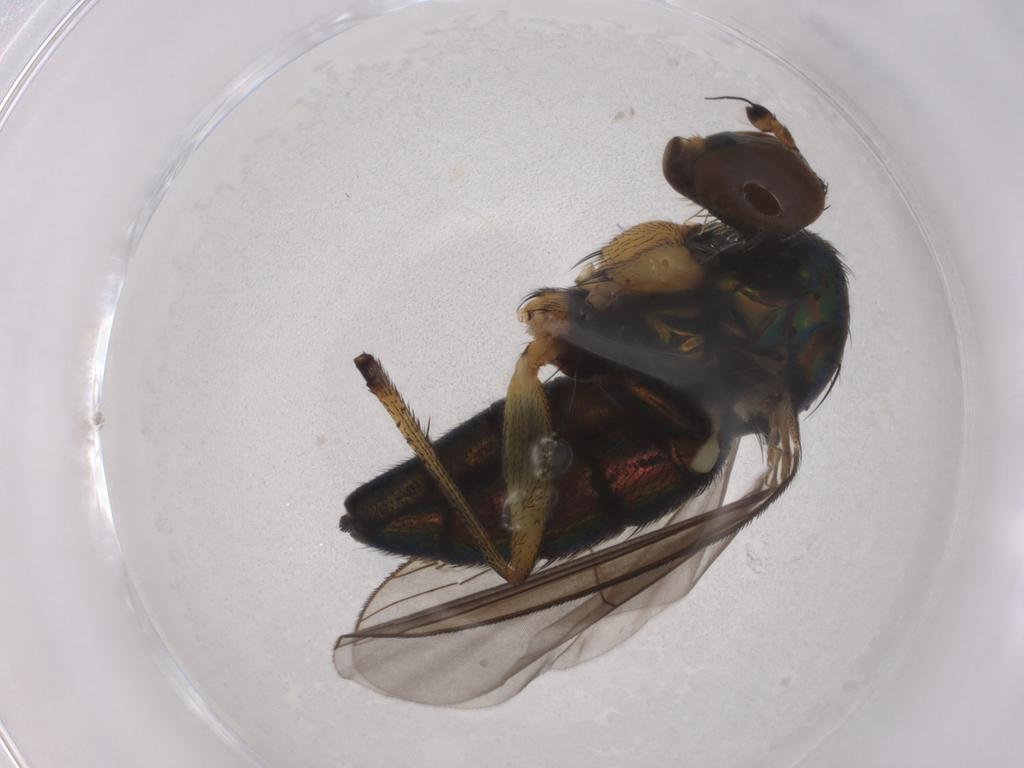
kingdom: Animalia
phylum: Arthropoda
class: Insecta
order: Diptera
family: Dolichopodidae
